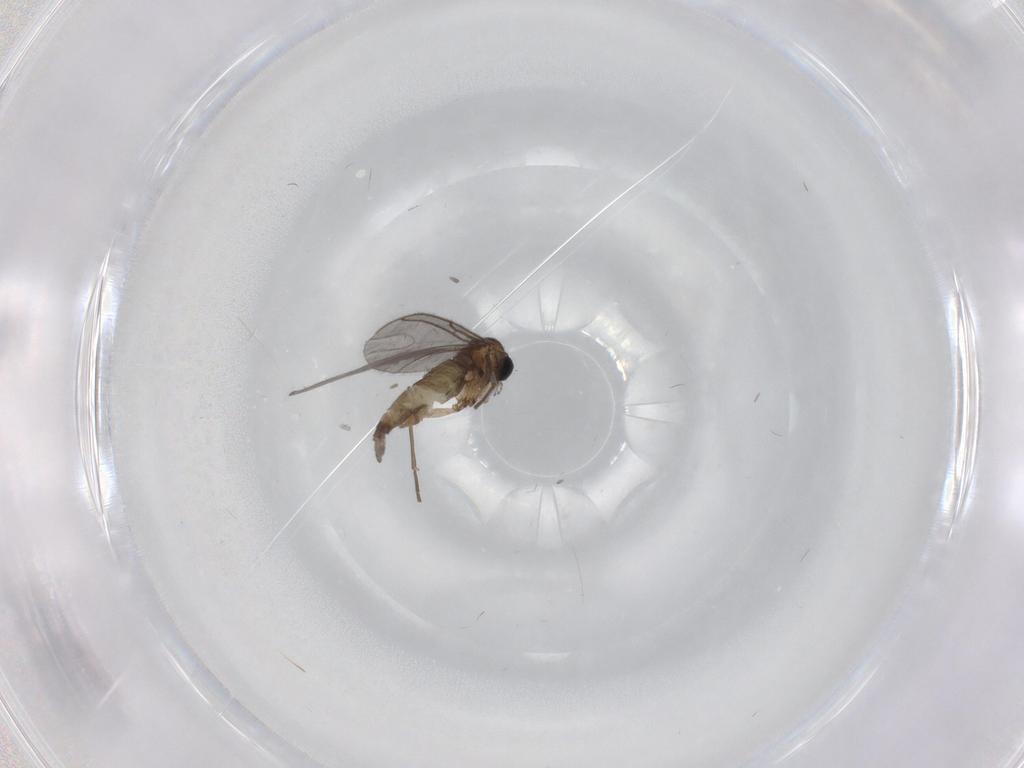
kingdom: Animalia
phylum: Arthropoda
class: Insecta
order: Diptera
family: Sciaridae
